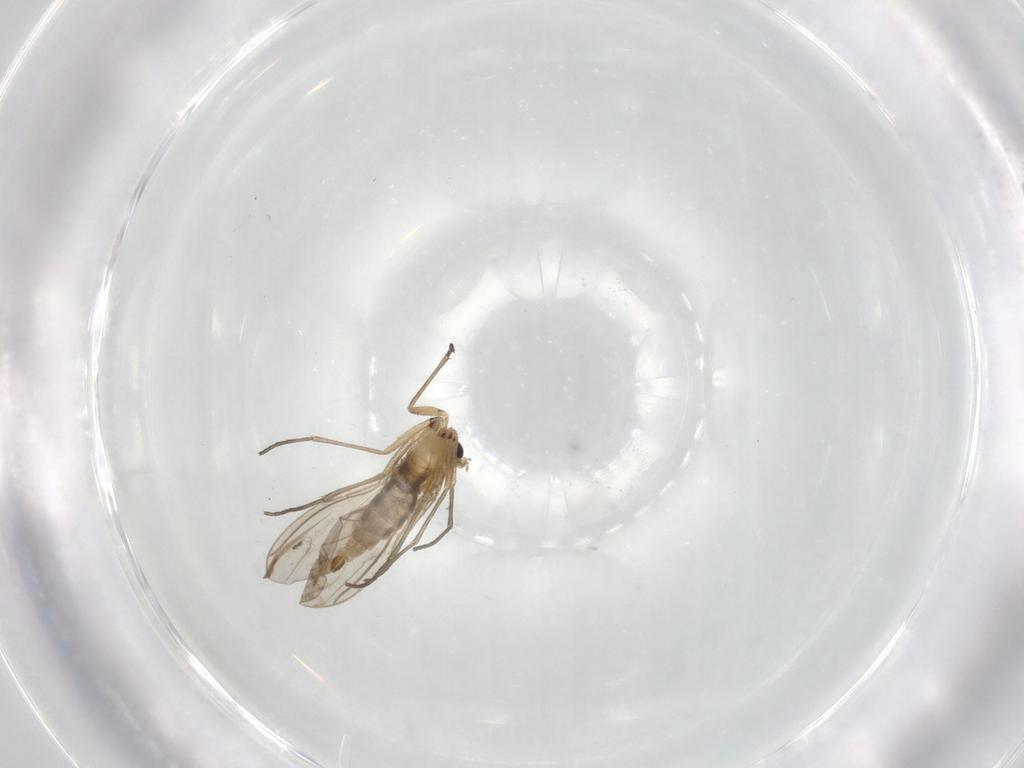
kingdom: Animalia
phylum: Arthropoda
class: Insecta
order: Diptera
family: Sciaridae
